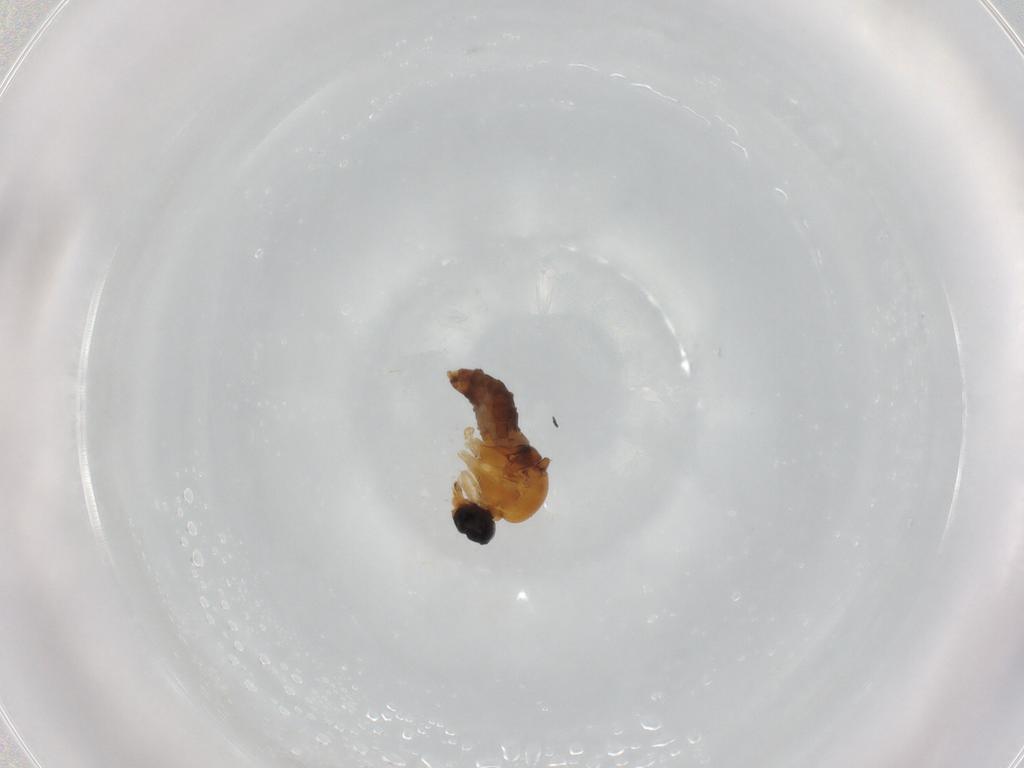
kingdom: Animalia
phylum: Arthropoda
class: Insecta
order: Diptera
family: Hybotidae
